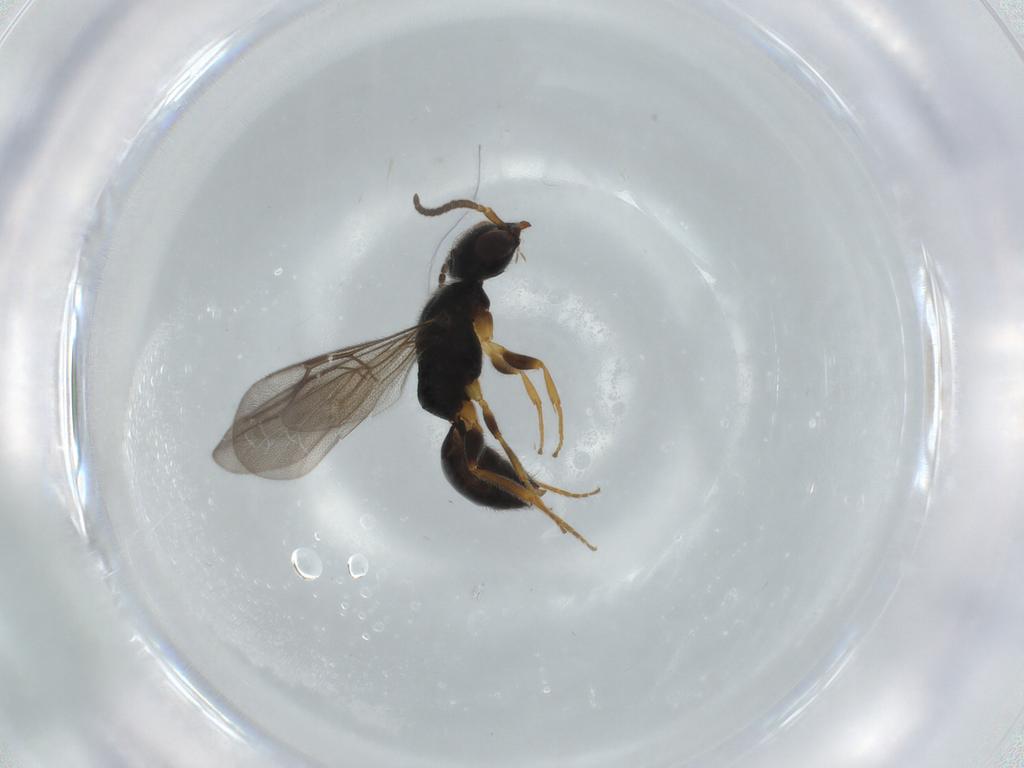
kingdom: Animalia
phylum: Arthropoda
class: Insecta
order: Hymenoptera
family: Bethylidae
